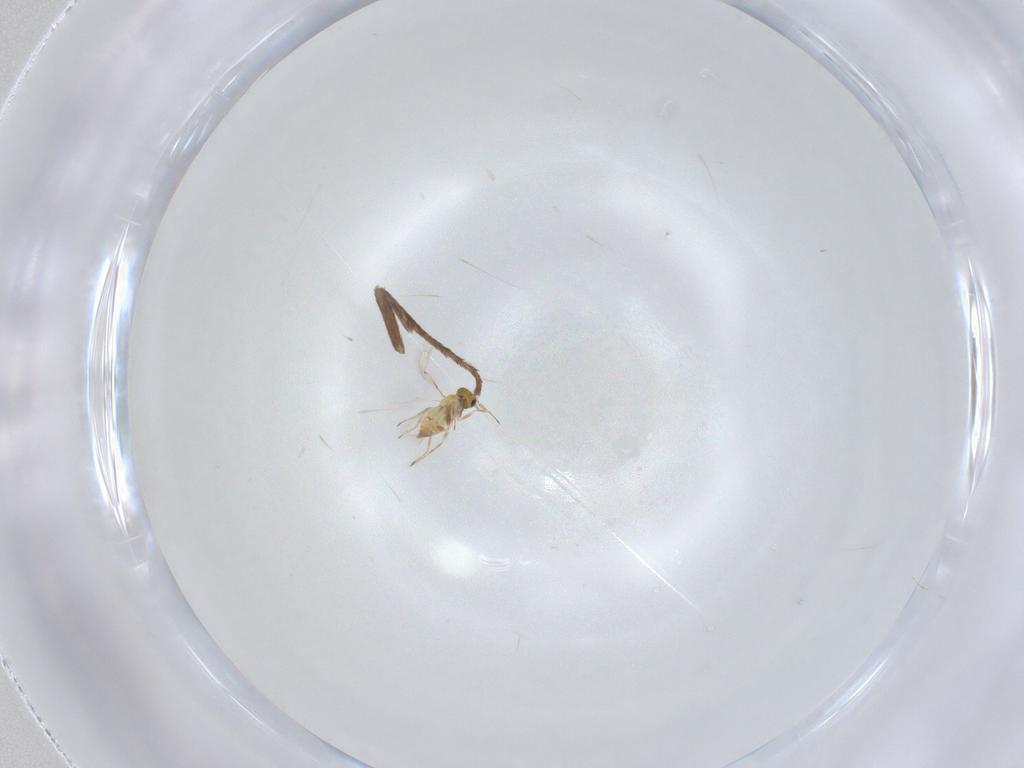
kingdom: Animalia
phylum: Arthropoda
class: Insecta
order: Hymenoptera
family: Trichogrammatidae
